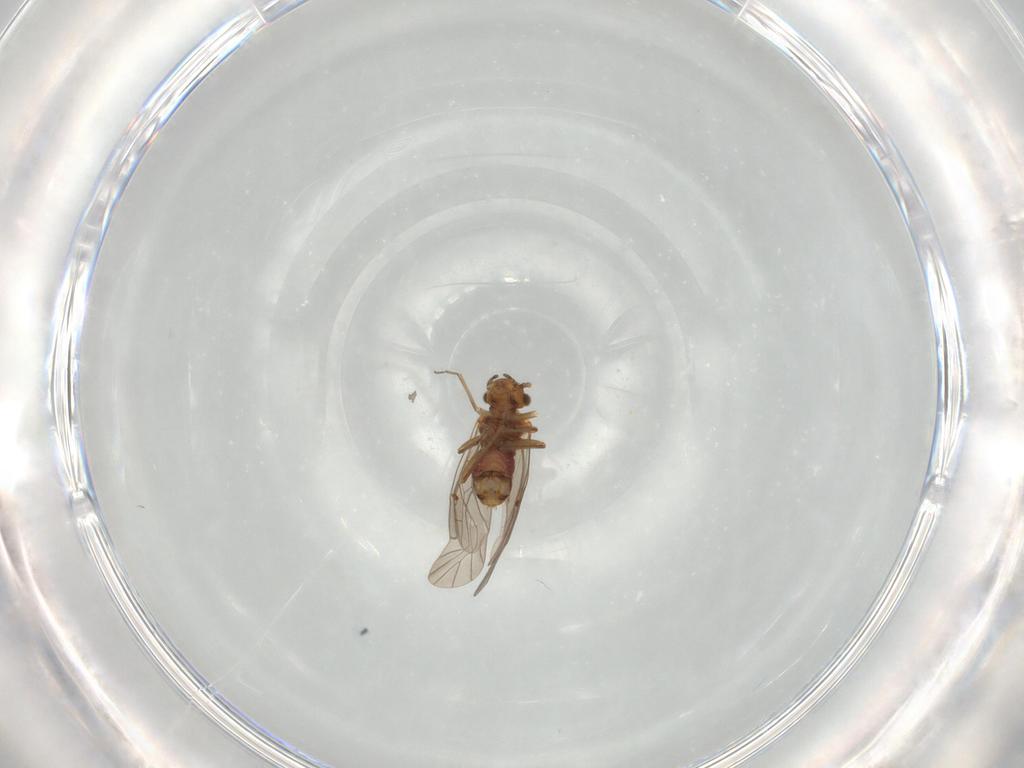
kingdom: Animalia
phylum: Arthropoda
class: Insecta
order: Psocodea
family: Lachesillidae
